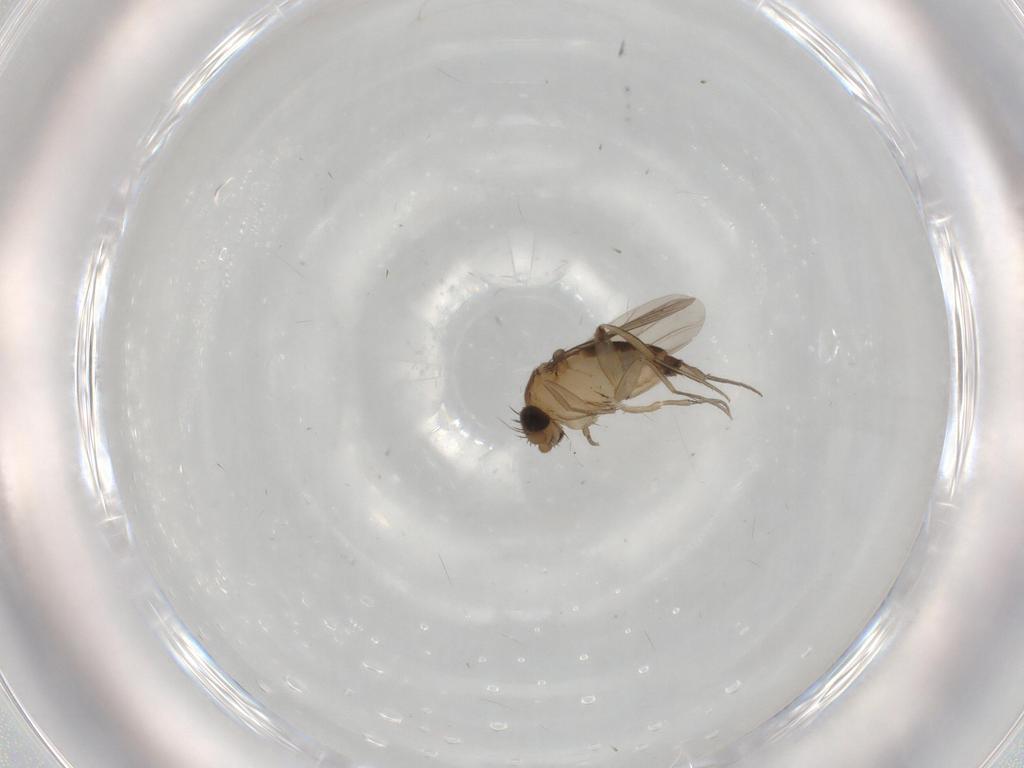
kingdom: Animalia
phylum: Arthropoda
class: Insecta
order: Diptera
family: Phoridae
